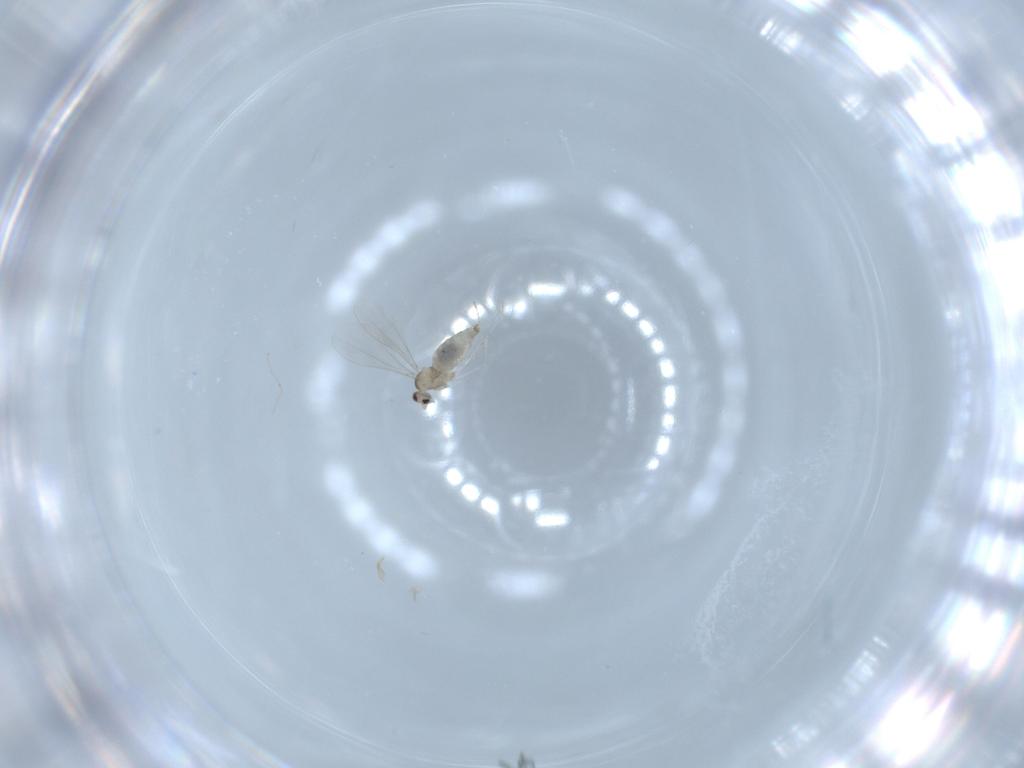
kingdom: Animalia
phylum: Arthropoda
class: Insecta
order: Diptera
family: Cecidomyiidae
